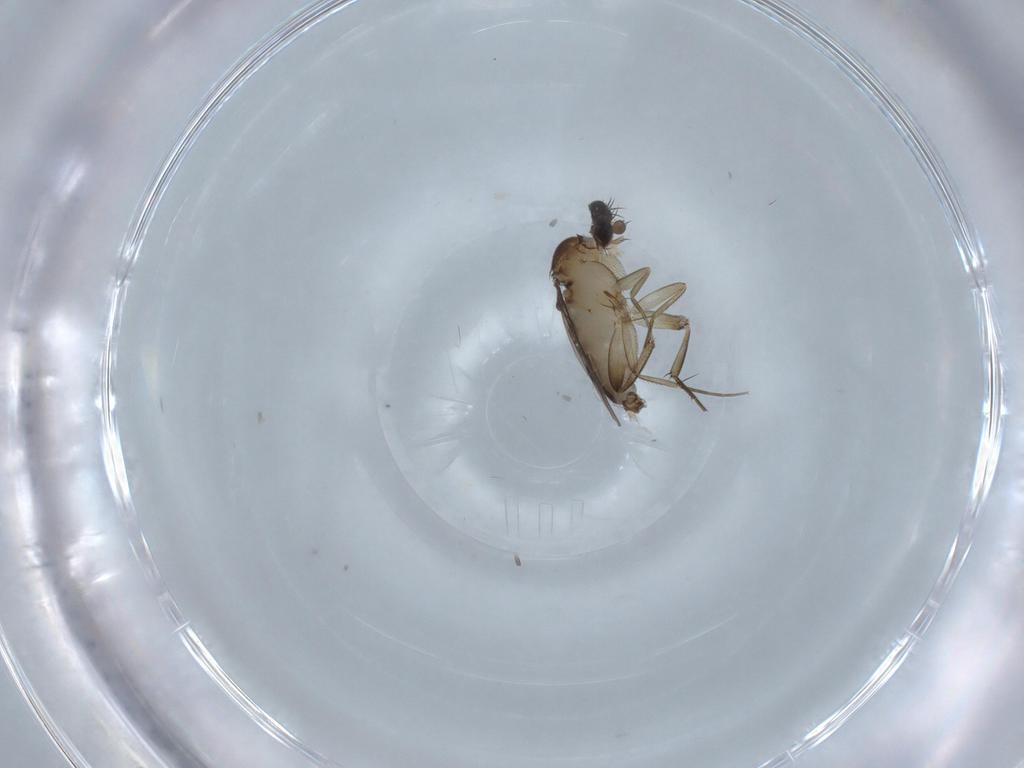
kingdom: Animalia
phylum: Arthropoda
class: Insecta
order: Diptera
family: Phoridae
